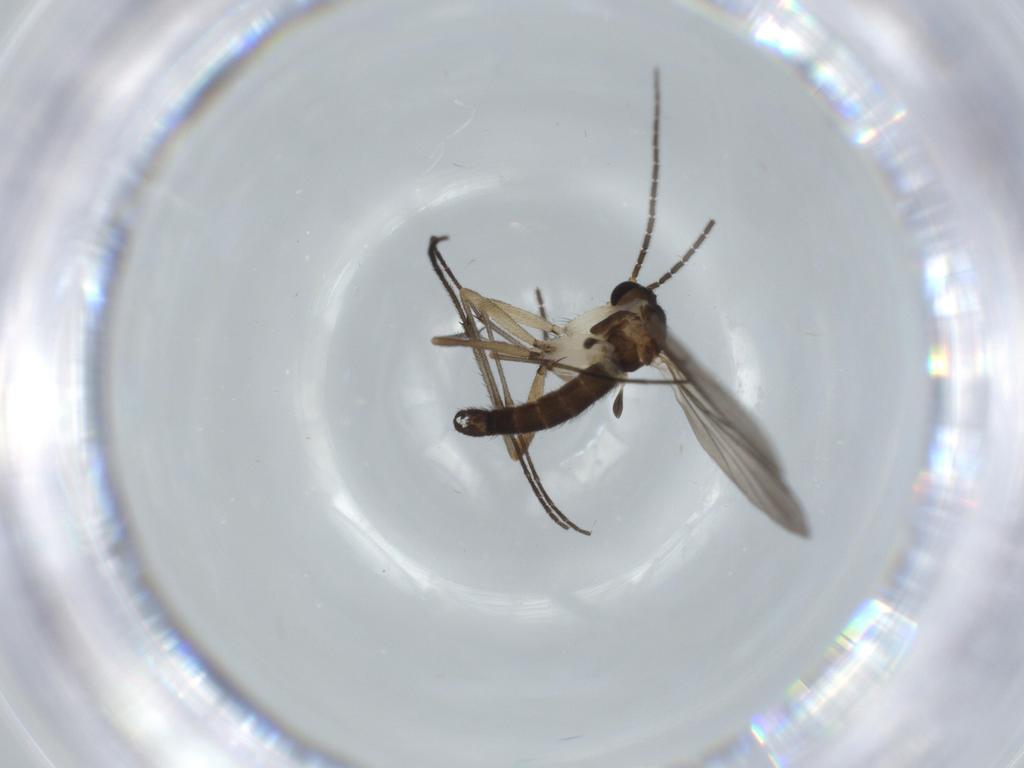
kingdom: Animalia
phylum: Arthropoda
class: Insecta
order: Diptera
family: Sciaridae
